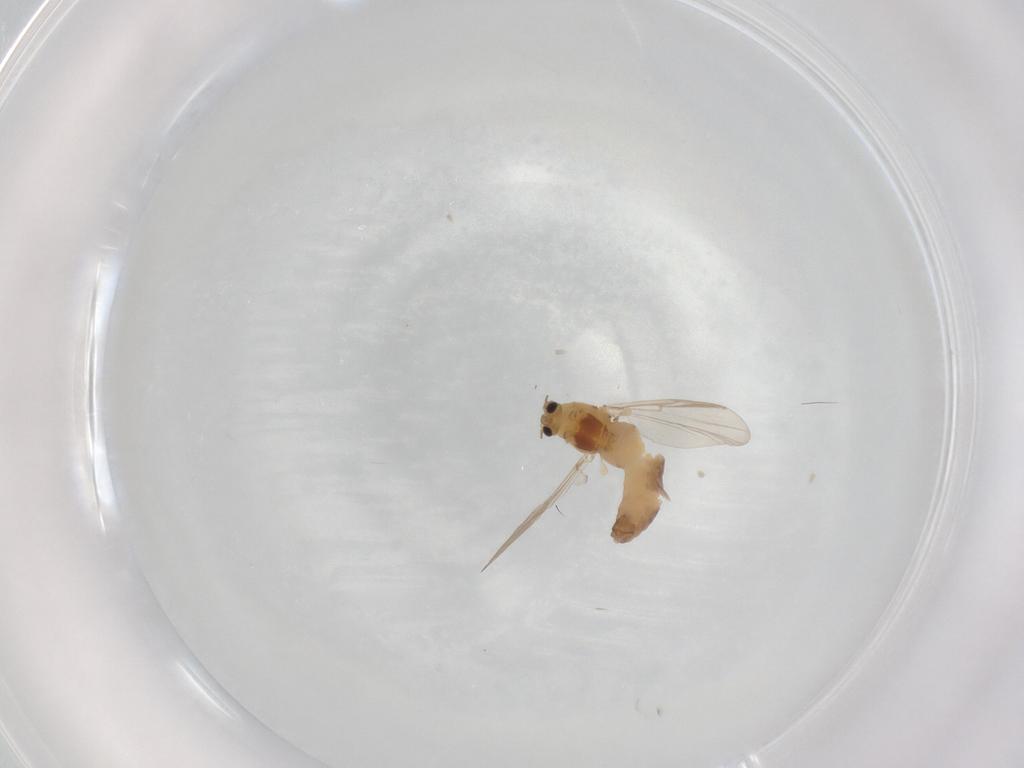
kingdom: Animalia
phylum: Arthropoda
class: Insecta
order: Diptera
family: Chironomidae
